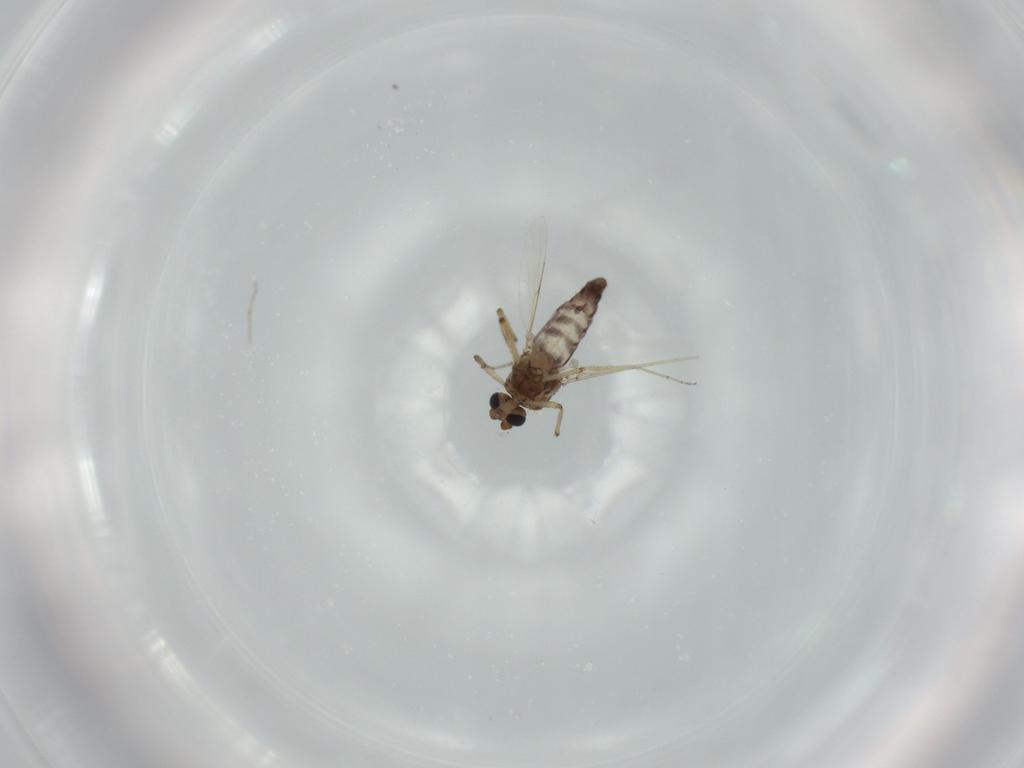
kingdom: Animalia
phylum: Arthropoda
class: Insecta
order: Diptera
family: Ceratopogonidae
